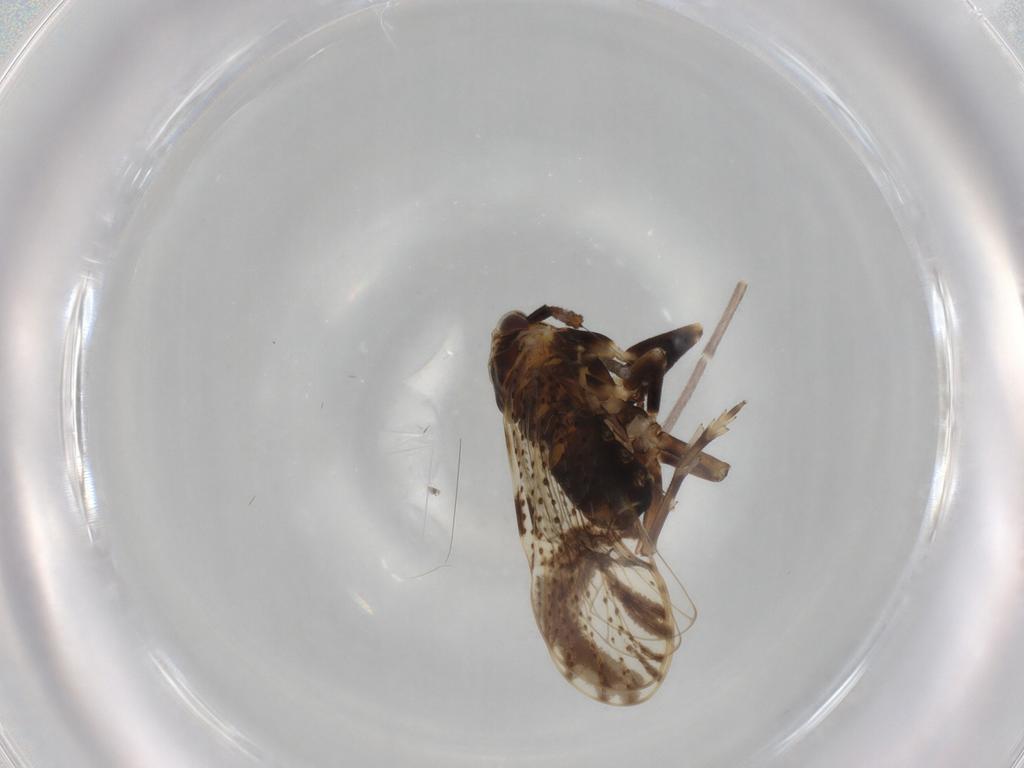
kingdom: Animalia
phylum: Arthropoda
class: Insecta
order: Hemiptera
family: Delphacidae
